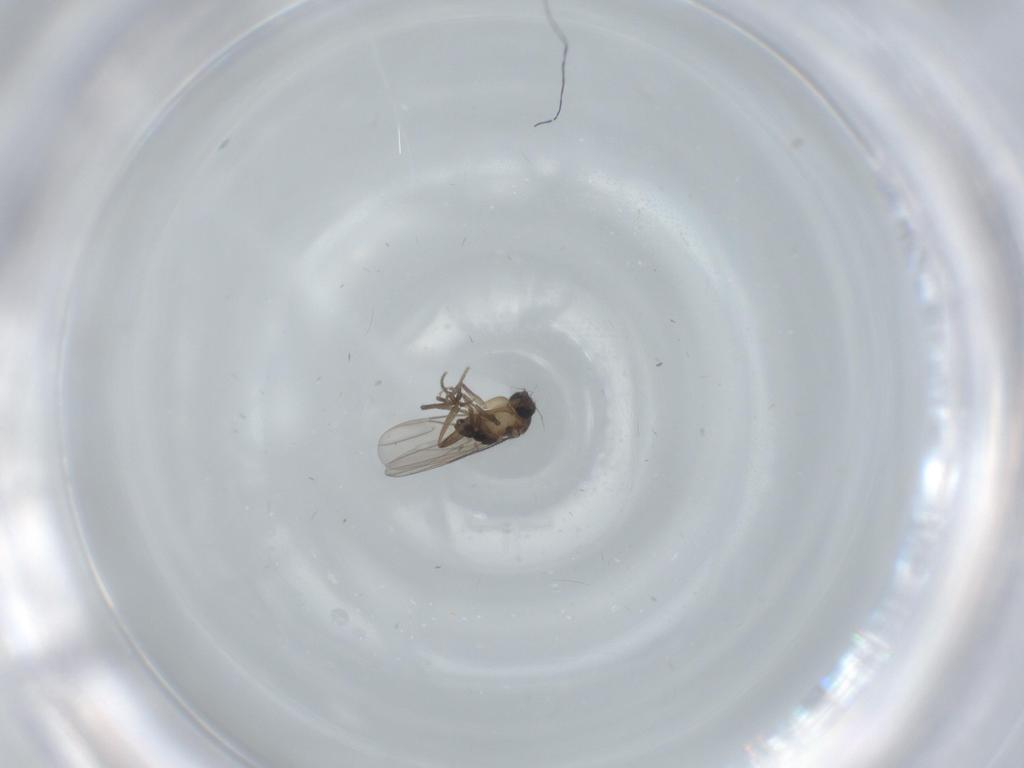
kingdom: Animalia
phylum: Arthropoda
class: Insecta
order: Diptera
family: Phoridae
